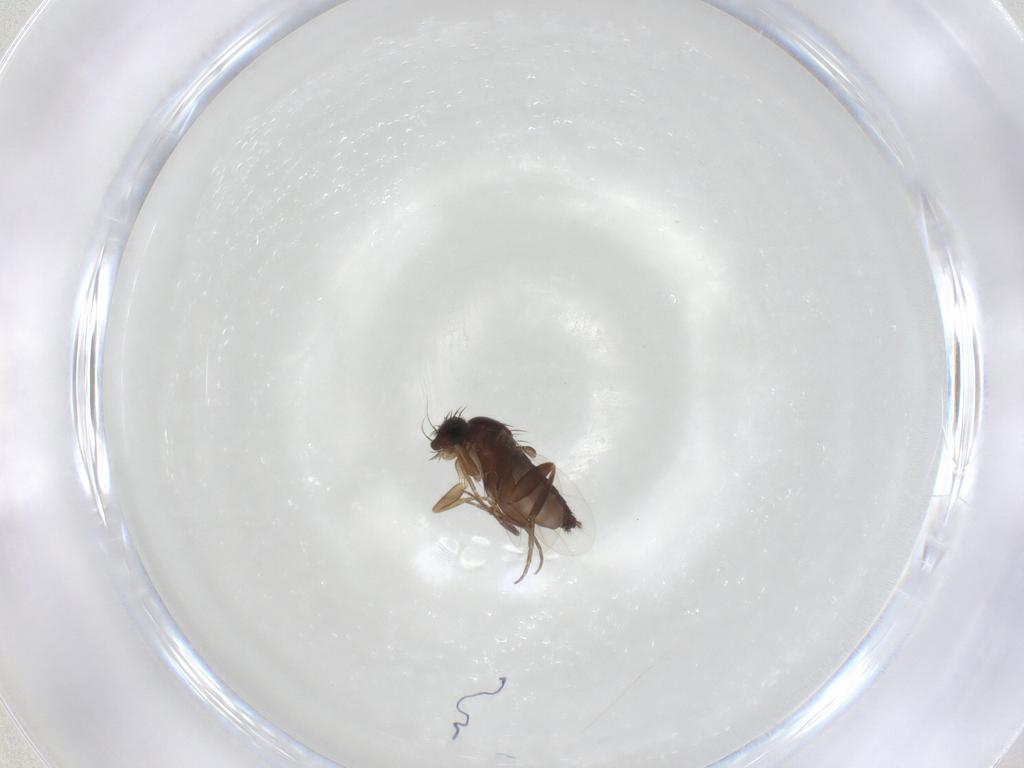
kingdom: Animalia
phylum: Arthropoda
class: Insecta
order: Diptera
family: Phoridae
